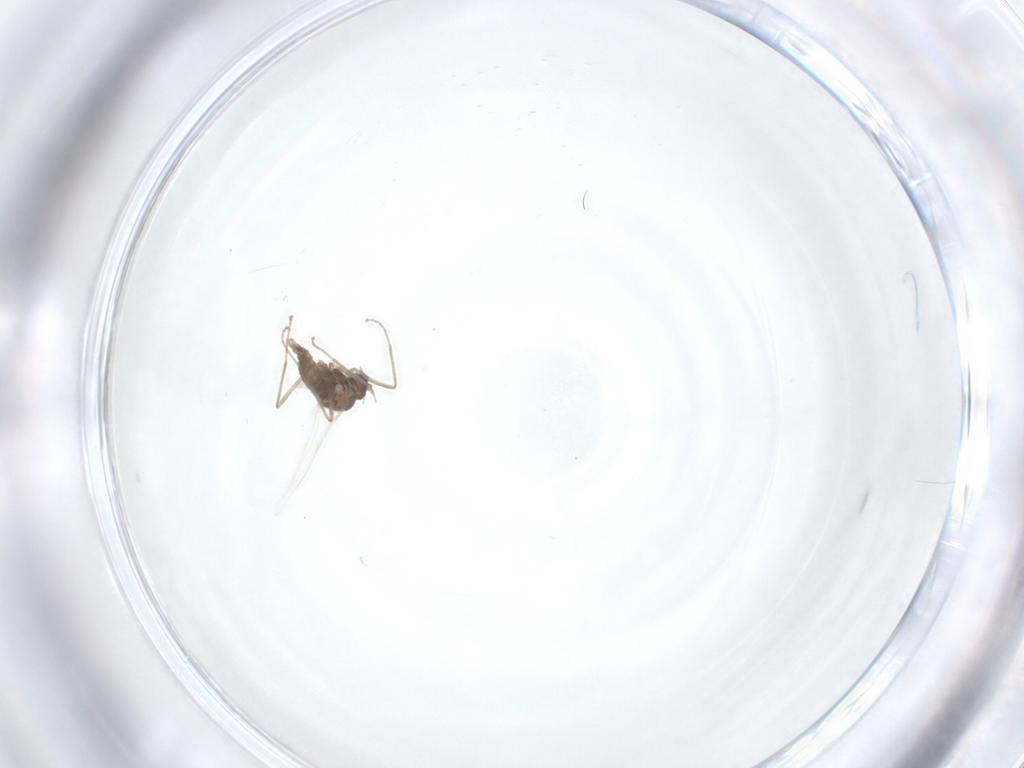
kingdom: Animalia
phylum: Arthropoda
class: Insecta
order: Diptera
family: Cecidomyiidae
